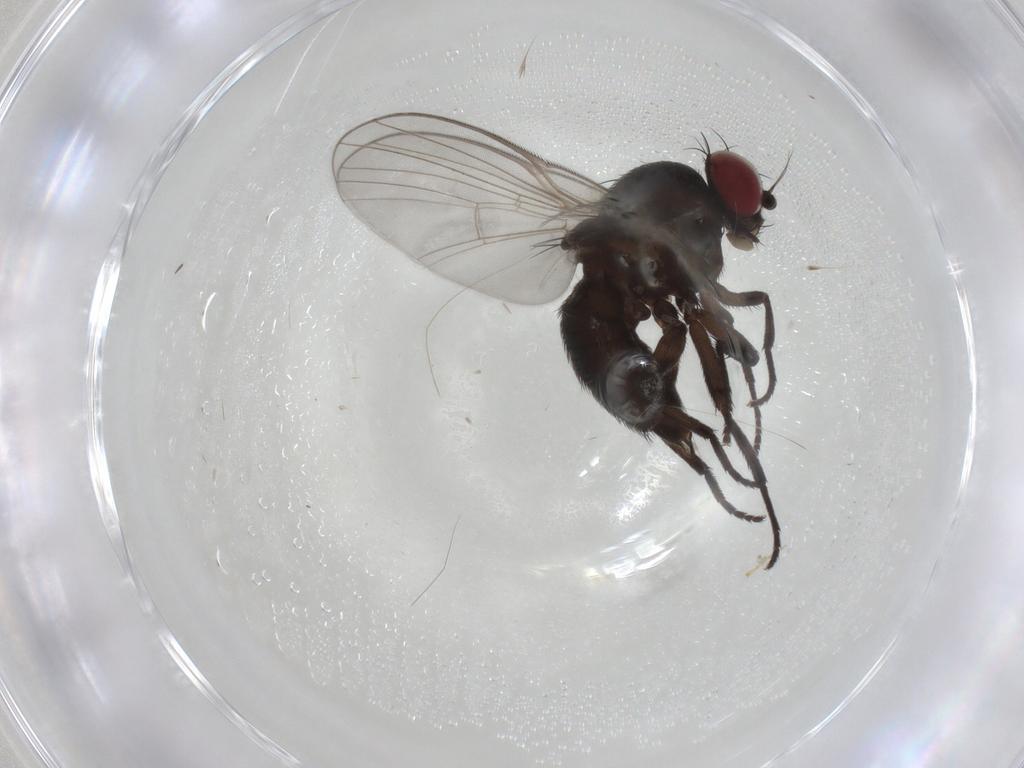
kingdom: Animalia
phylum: Arthropoda
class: Insecta
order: Diptera
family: Agromyzidae
